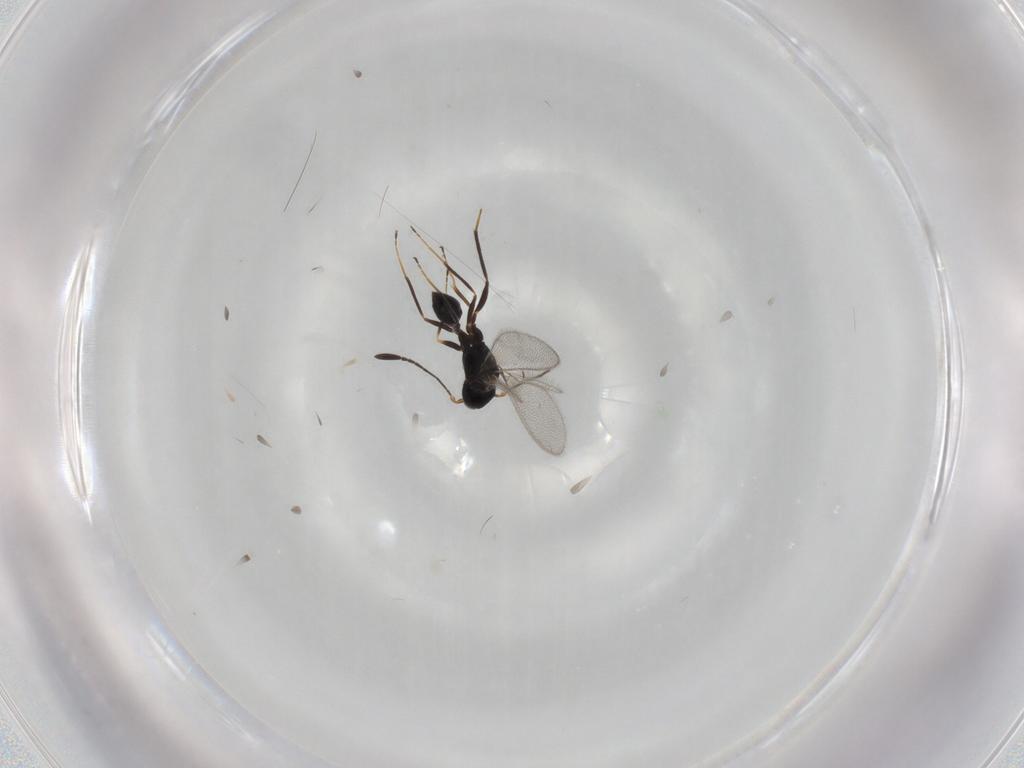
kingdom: Animalia
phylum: Arthropoda
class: Insecta
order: Hymenoptera
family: Mymaridae
